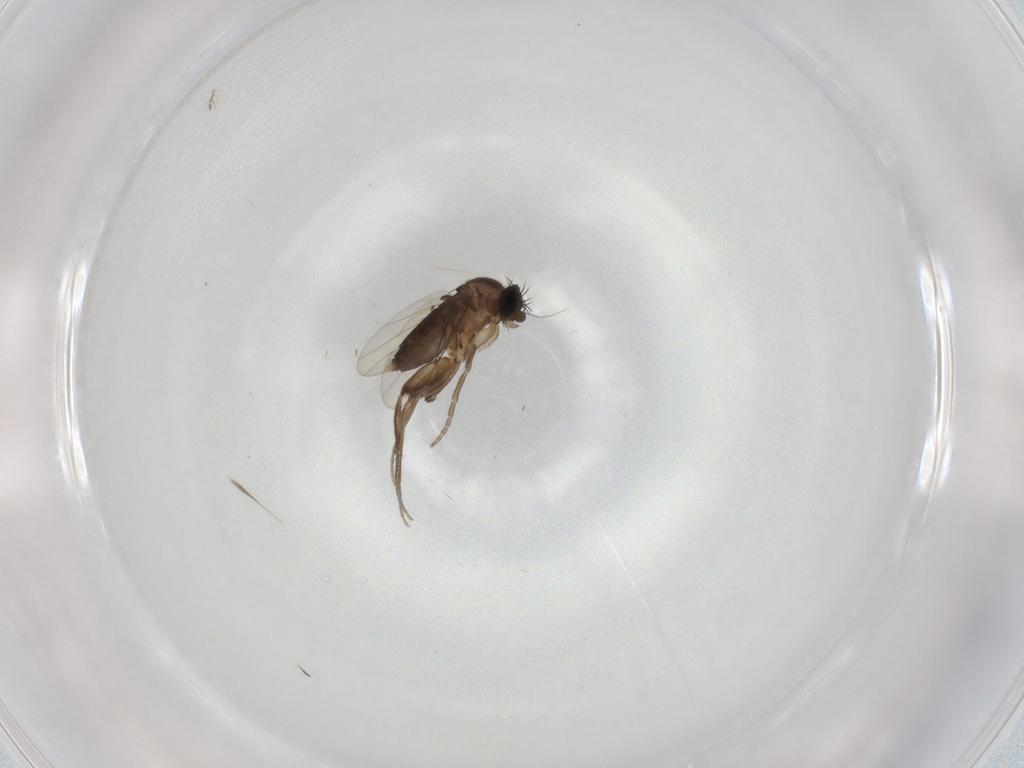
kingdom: Animalia
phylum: Arthropoda
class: Insecta
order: Diptera
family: Phoridae
